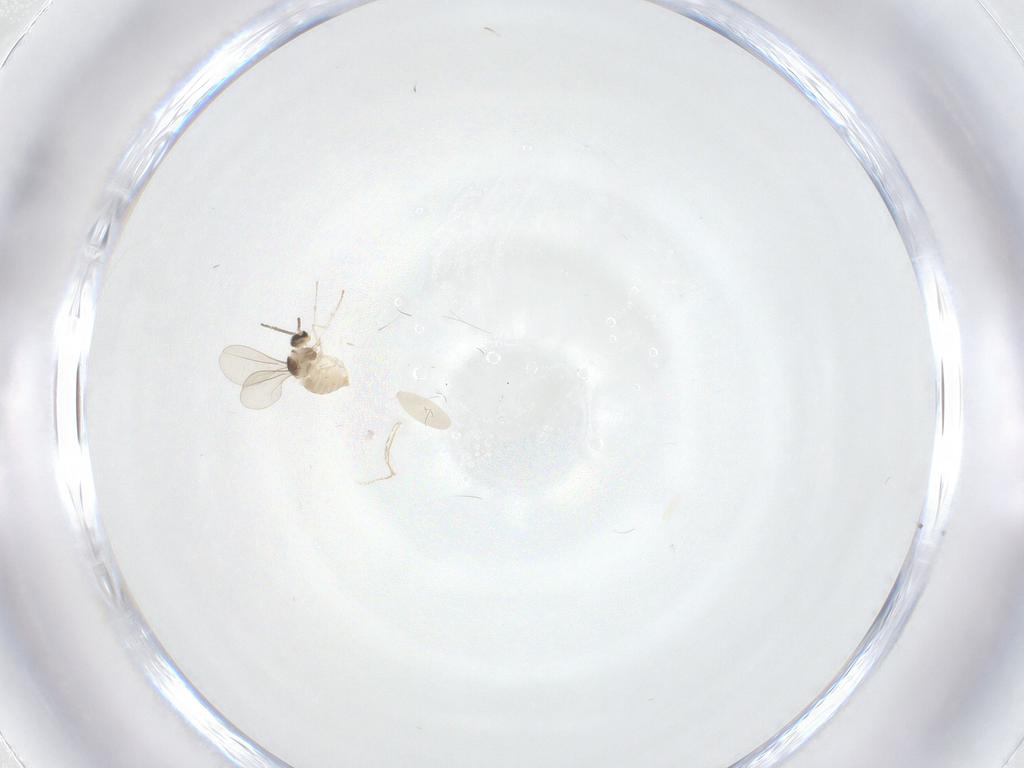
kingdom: Animalia
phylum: Arthropoda
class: Insecta
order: Diptera
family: Mycetophilidae
